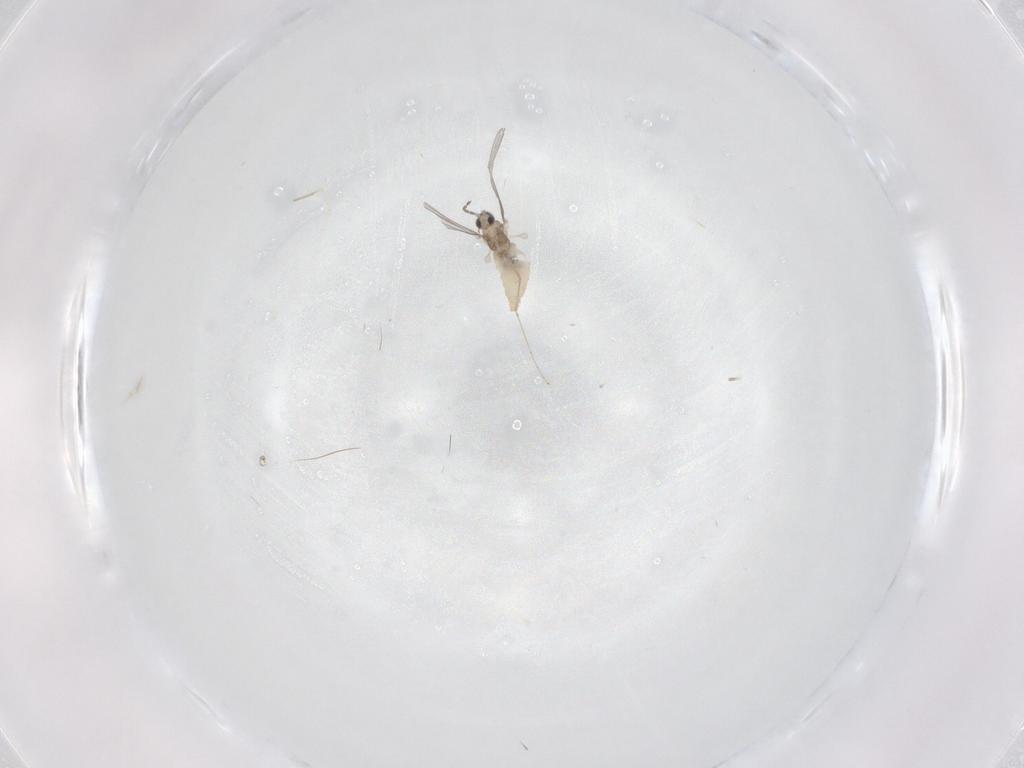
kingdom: Animalia
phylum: Arthropoda
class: Insecta
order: Diptera
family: Cecidomyiidae
